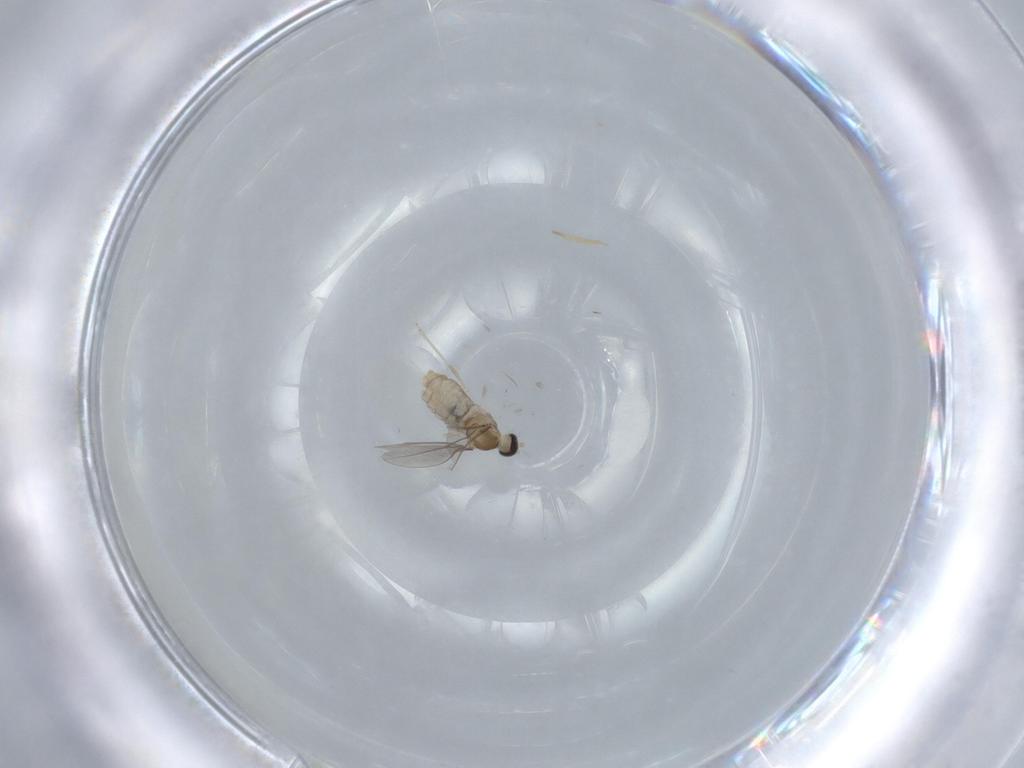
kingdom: Animalia
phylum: Arthropoda
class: Insecta
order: Diptera
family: Cecidomyiidae
